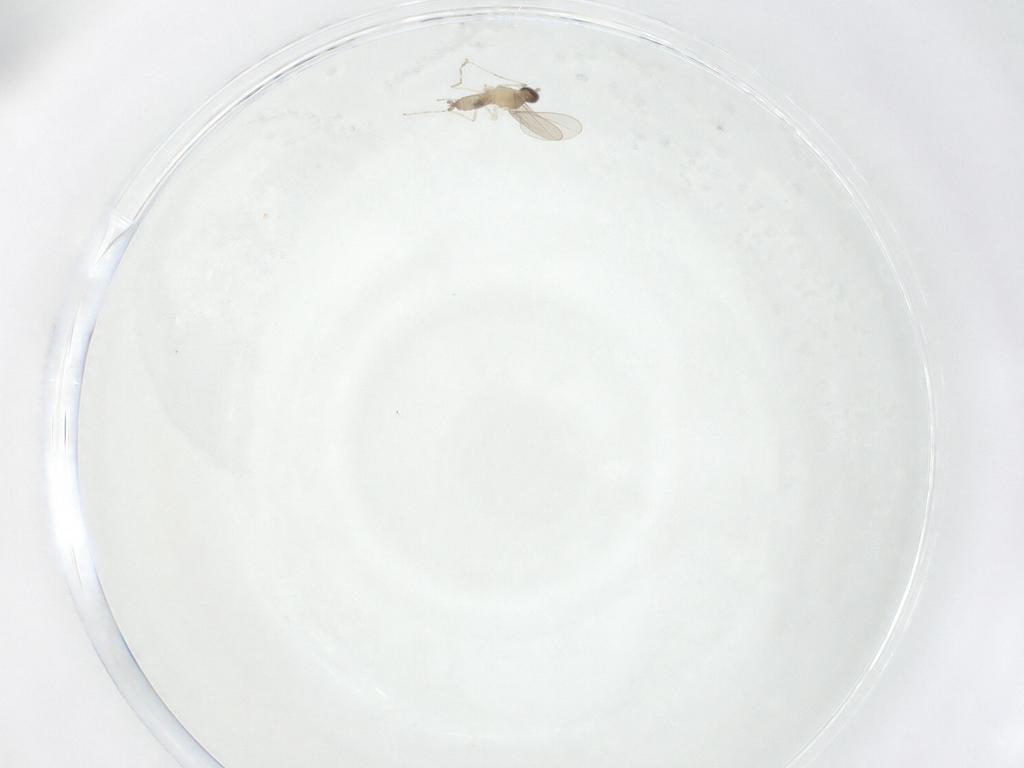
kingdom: Animalia
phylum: Arthropoda
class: Insecta
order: Diptera
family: Cecidomyiidae
